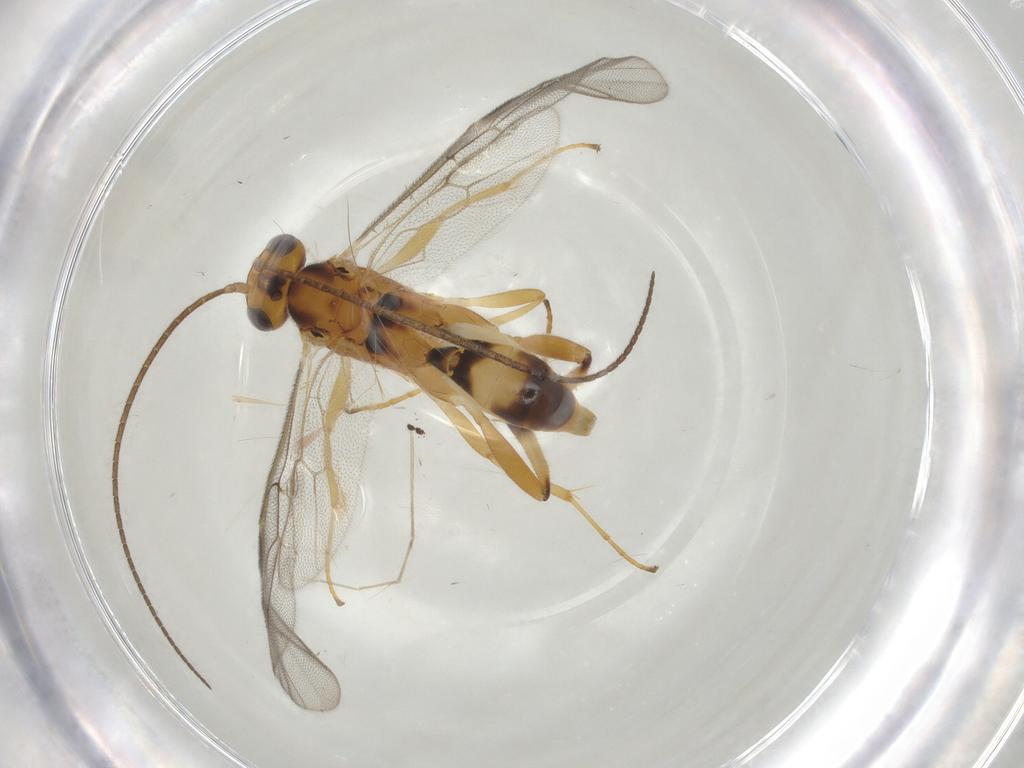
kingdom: Animalia
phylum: Arthropoda
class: Insecta
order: Hymenoptera
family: Ichneumonidae
